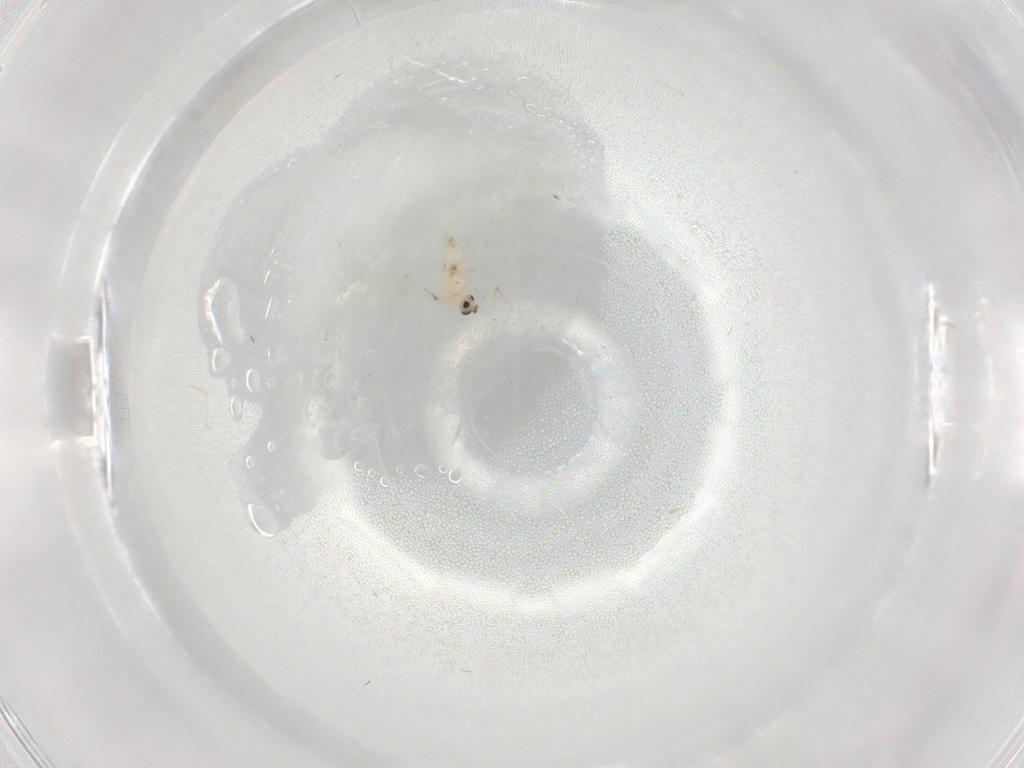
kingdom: Animalia
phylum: Arthropoda
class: Insecta
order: Diptera
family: Cecidomyiidae
